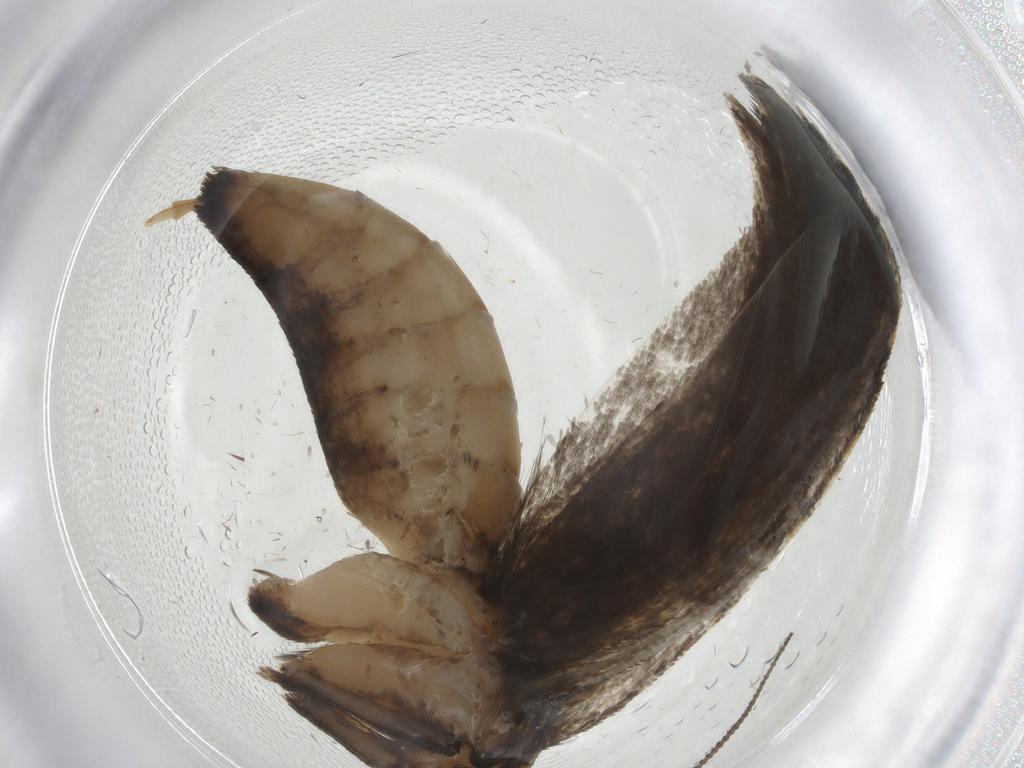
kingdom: Animalia
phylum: Arthropoda
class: Insecta
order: Lepidoptera
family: Tineidae
